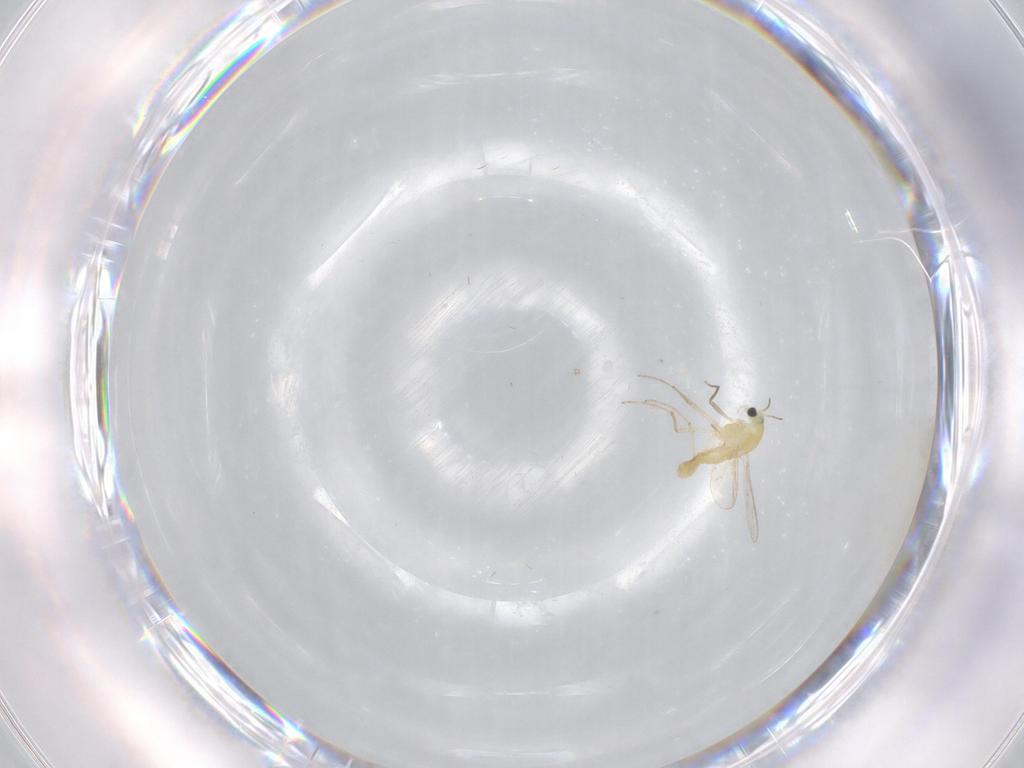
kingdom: Animalia
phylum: Arthropoda
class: Insecta
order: Diptera
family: Chironomidae
